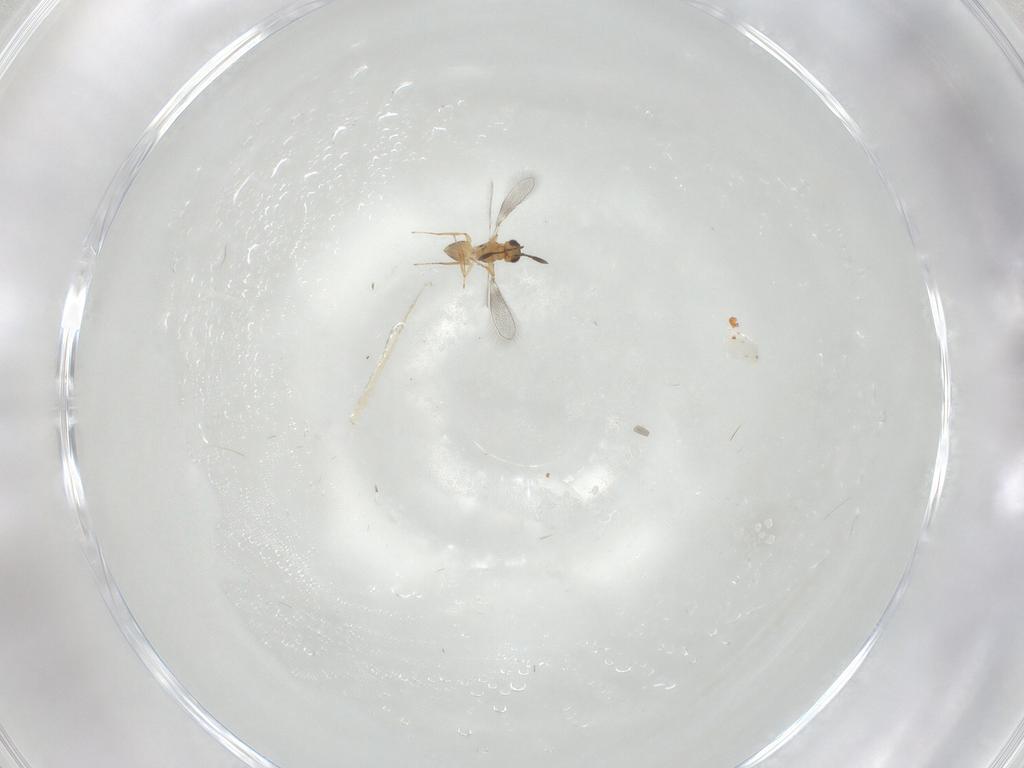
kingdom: Animalia
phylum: Arthropoda
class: Insecta
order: Hymenoptera
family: Mymaridae
